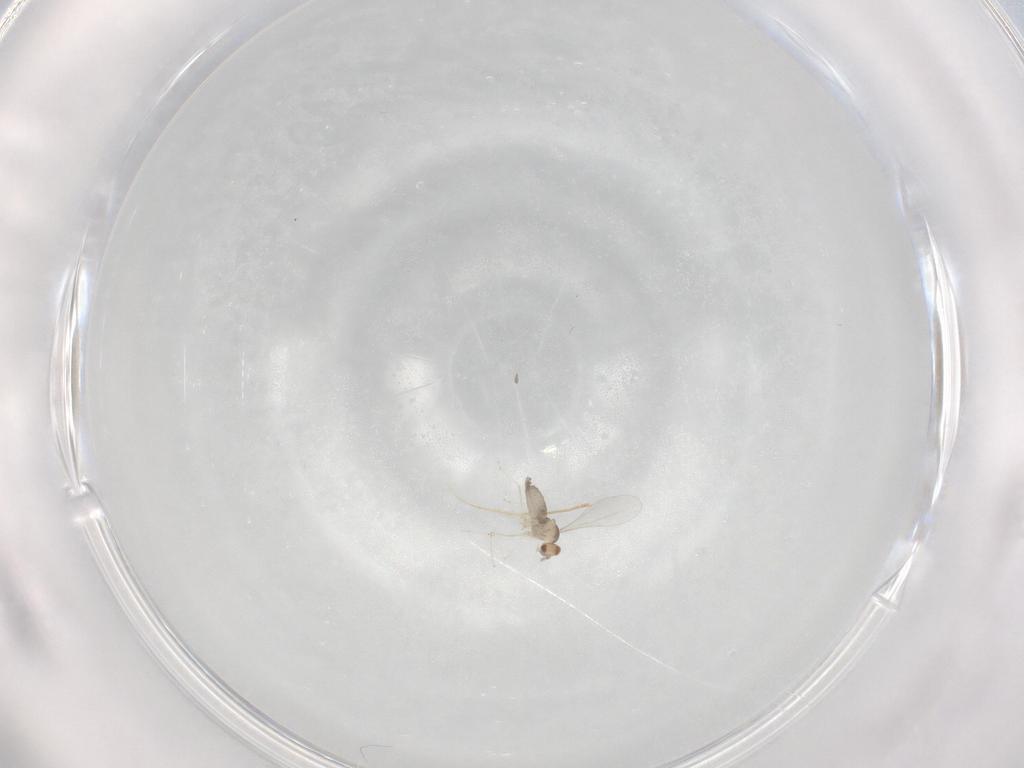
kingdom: Animalia
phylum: Arthropoda
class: Insecta
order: Diptera
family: Cecidomyiidae
